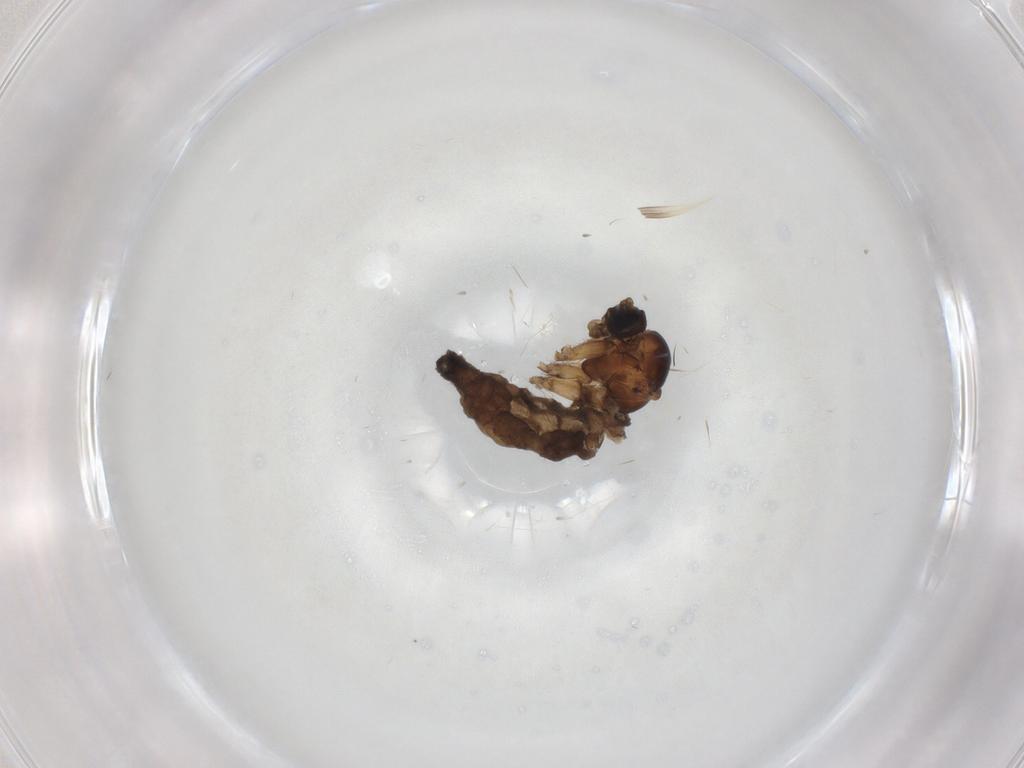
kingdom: Animalia
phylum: Arthropoda
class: Insecta
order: Diptera
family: Sciaridae
